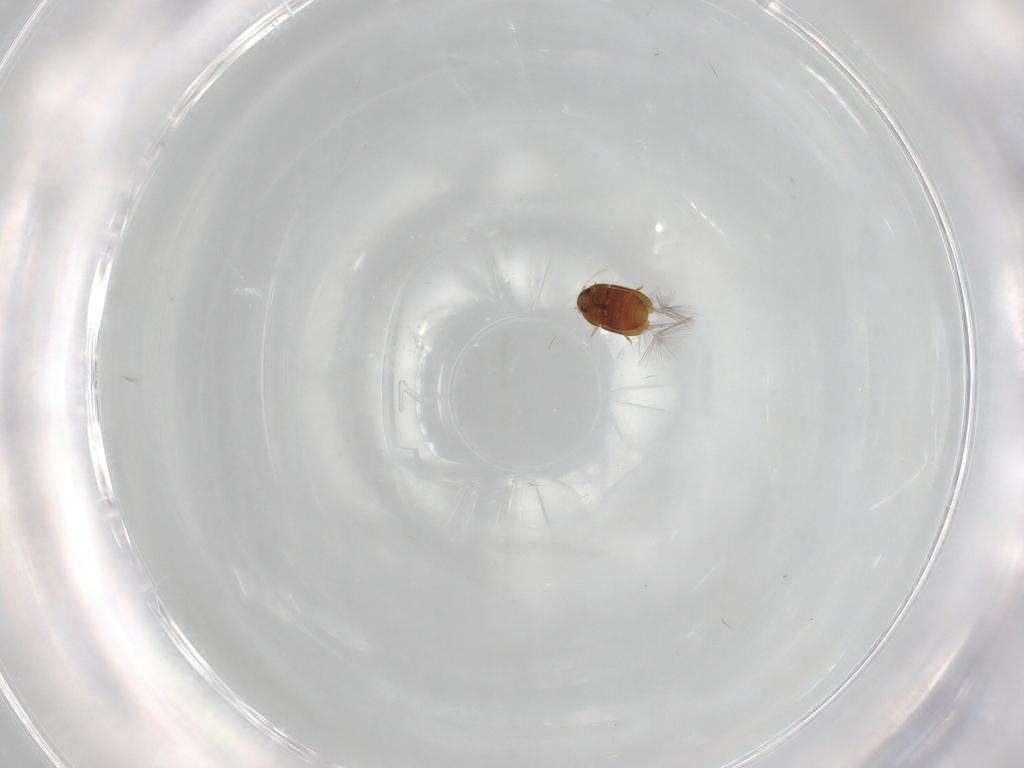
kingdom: Animalia
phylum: Arthropoda
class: Insecta
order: Coleoptera
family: Ptiliidae
